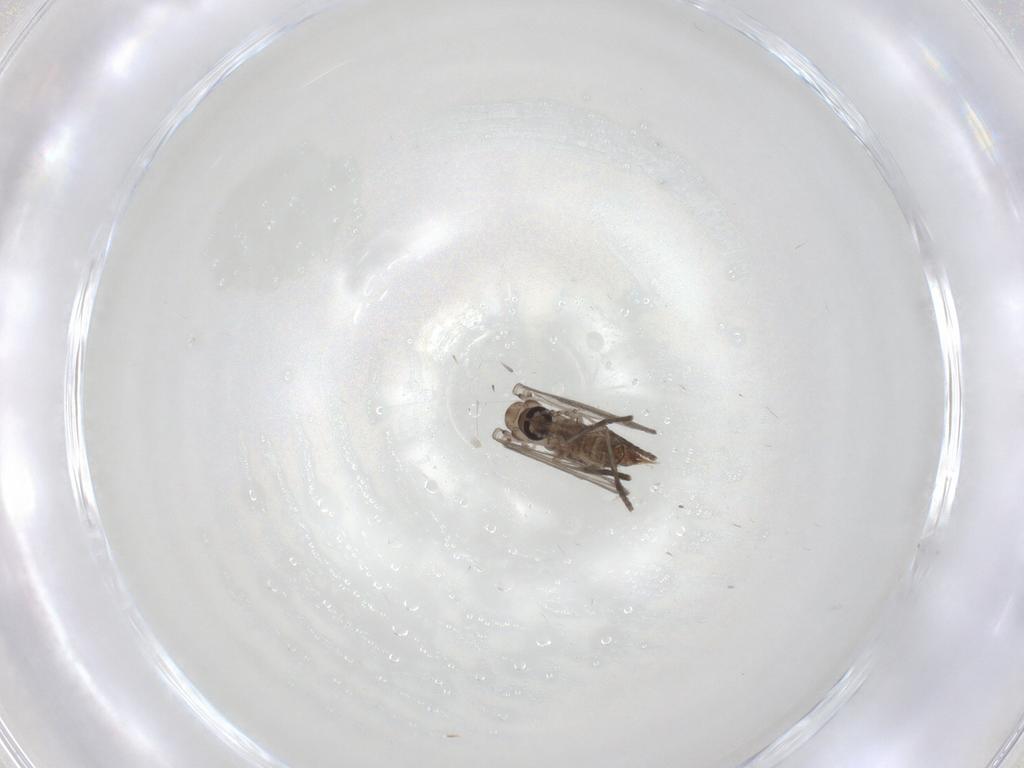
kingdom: Animalia
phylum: Arthropoda
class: Insecta
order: Diptera
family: Psychodidae
